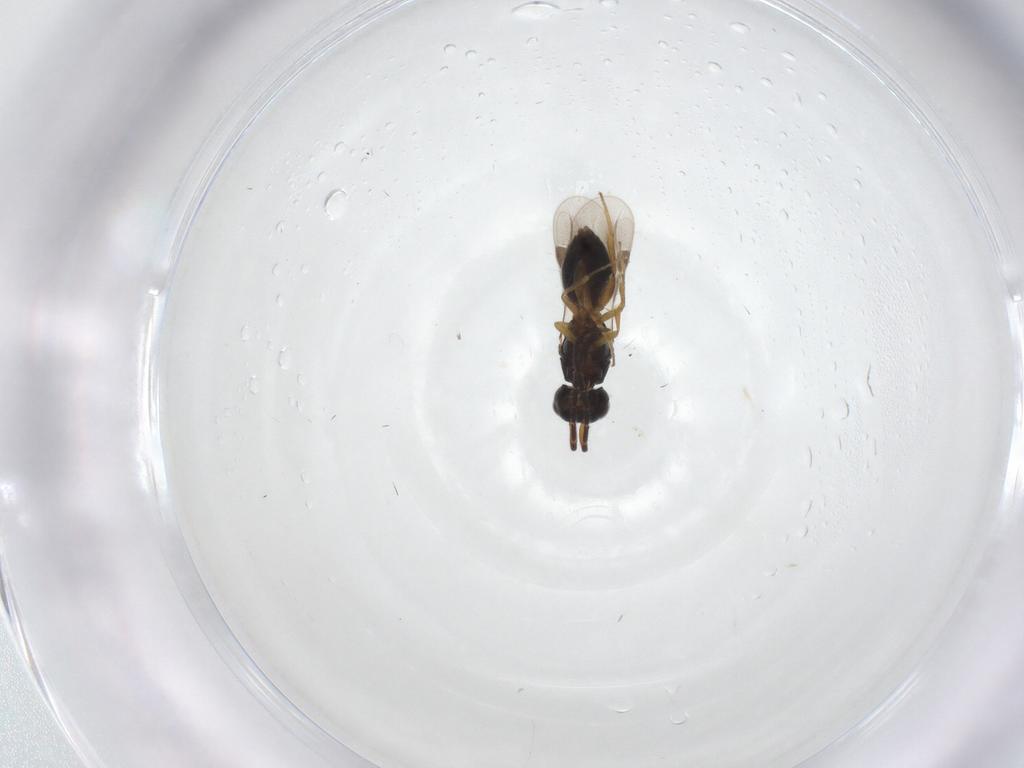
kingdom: Animalia
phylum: Arthropoda
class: Insecta
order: Hymenoptera
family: Megaspilidae
